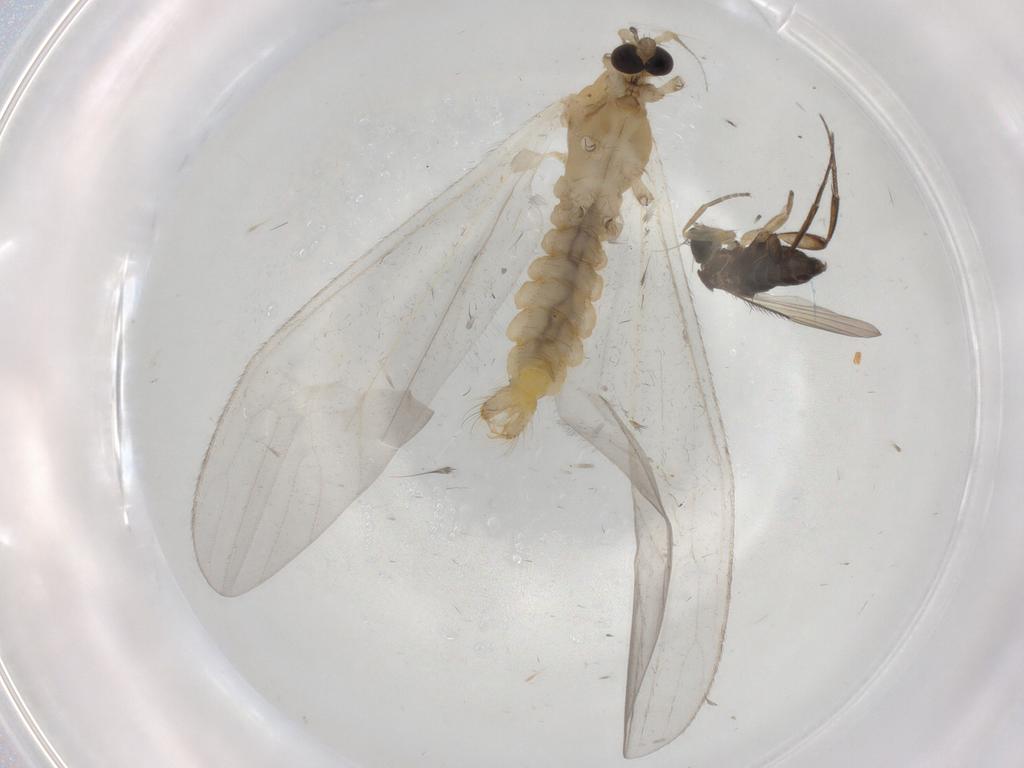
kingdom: Animalia
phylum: Arthropoda
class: Insecta
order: Diptera
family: Limoniidae
